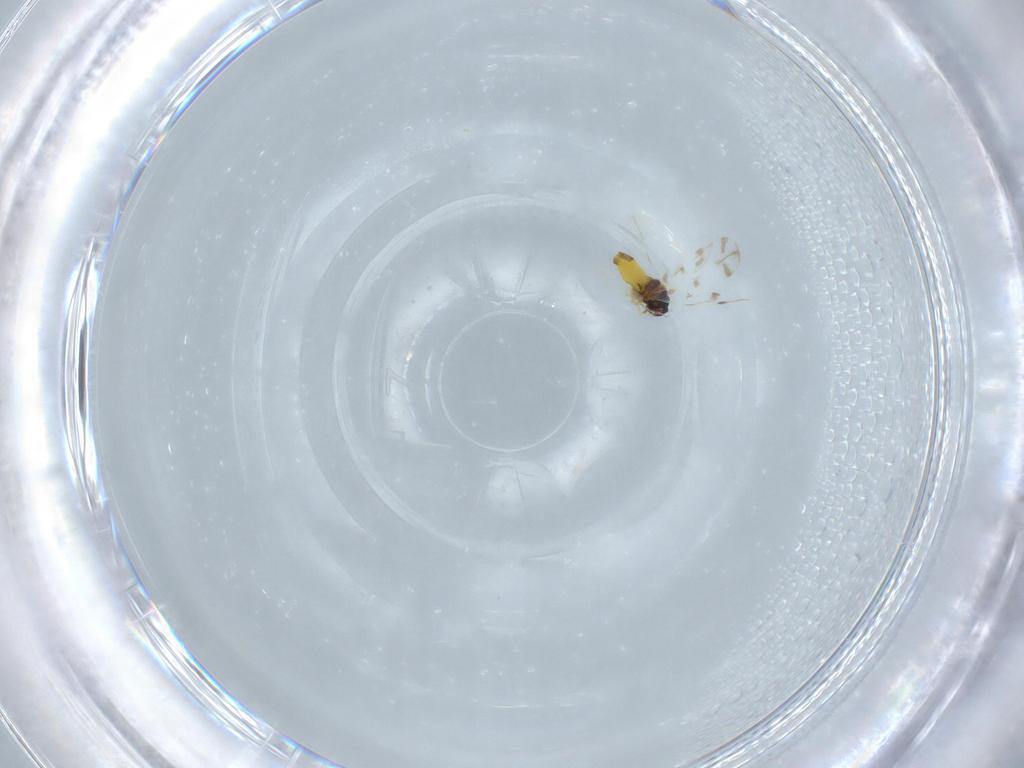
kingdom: Animalia
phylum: Arthropoda
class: Insecta
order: Hemiptera
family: Aleyrodidae
